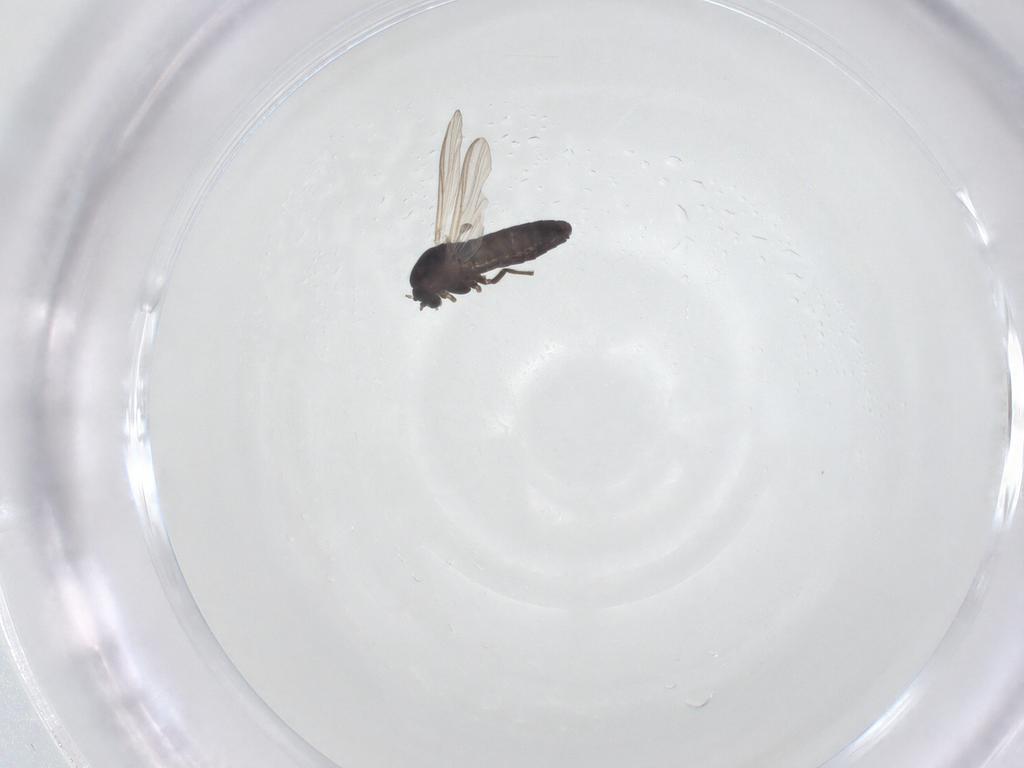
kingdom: Animalia
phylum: Arthropoda
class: Insecta
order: Diptera
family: Chironomidae
